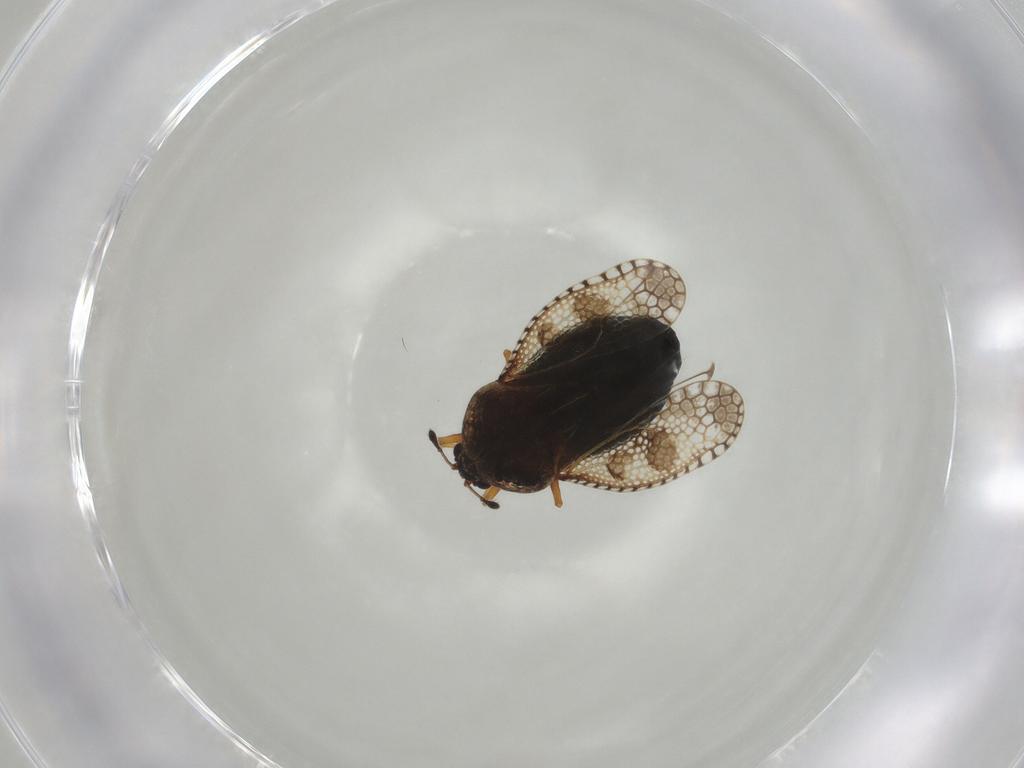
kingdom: Animalia
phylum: Arthropoda
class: Insecta
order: Hemiptera
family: Tingidae
